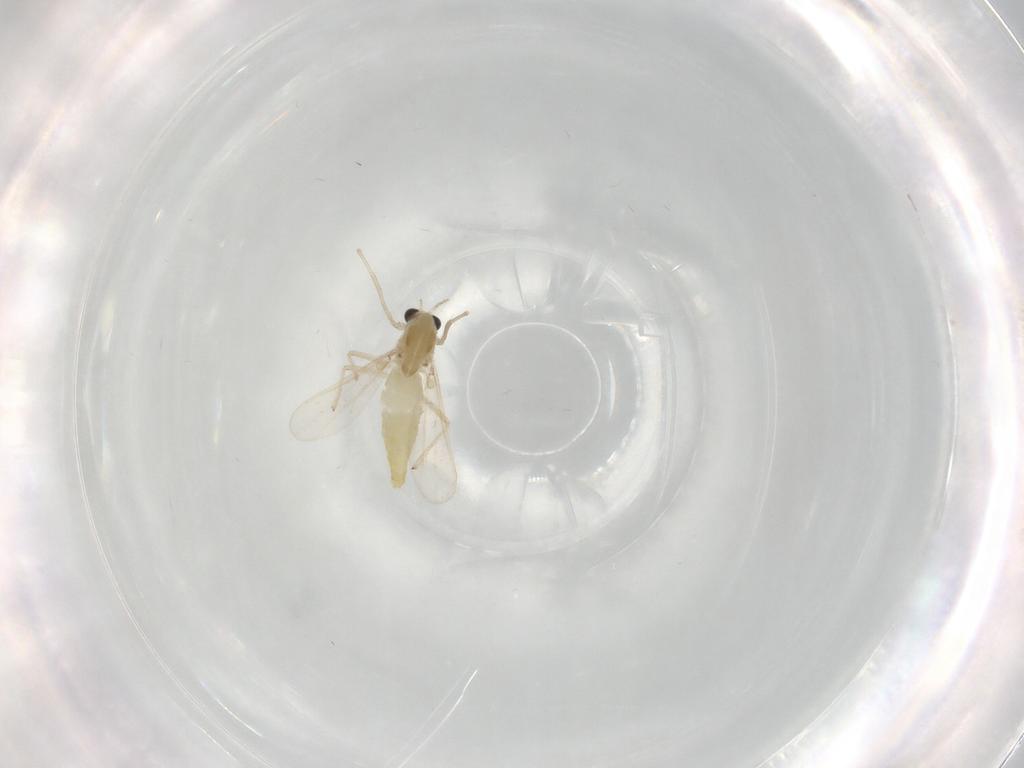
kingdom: Animalia
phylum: Arthropoda
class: Insecta
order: Diptera
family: Chironomidae
